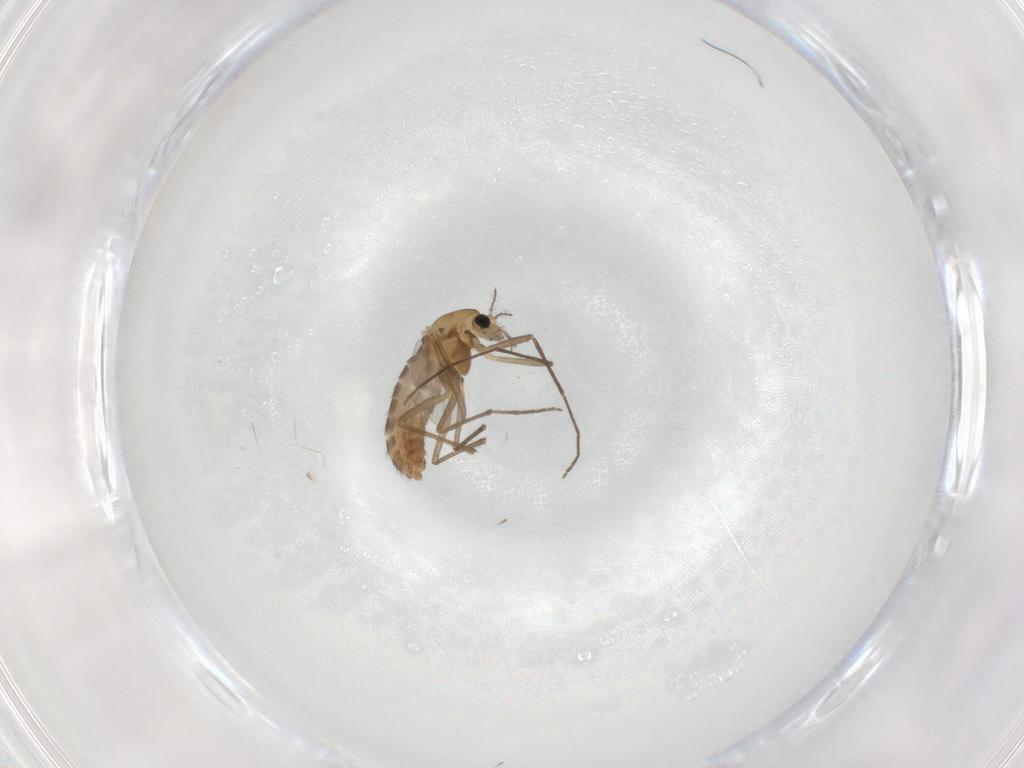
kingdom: Animalia
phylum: Arthropoda
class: Insecta
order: Diptera
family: Chironomidae
